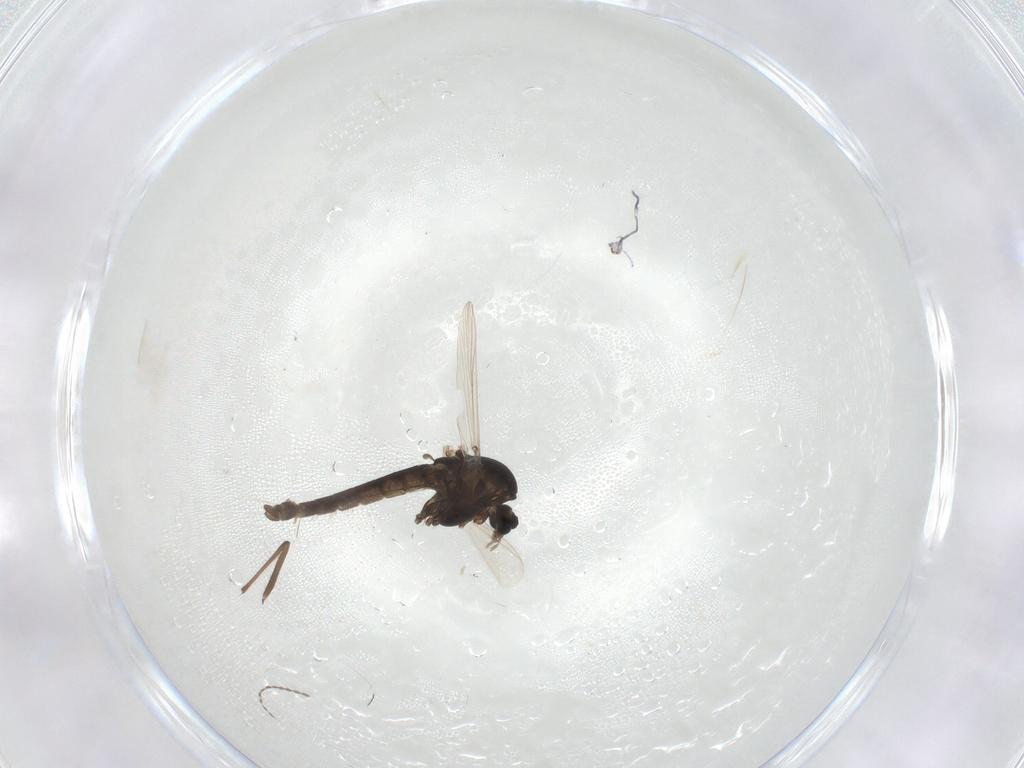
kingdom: Animalia
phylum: Arthropoda
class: Insecta
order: Diptera
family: Chironomidae
